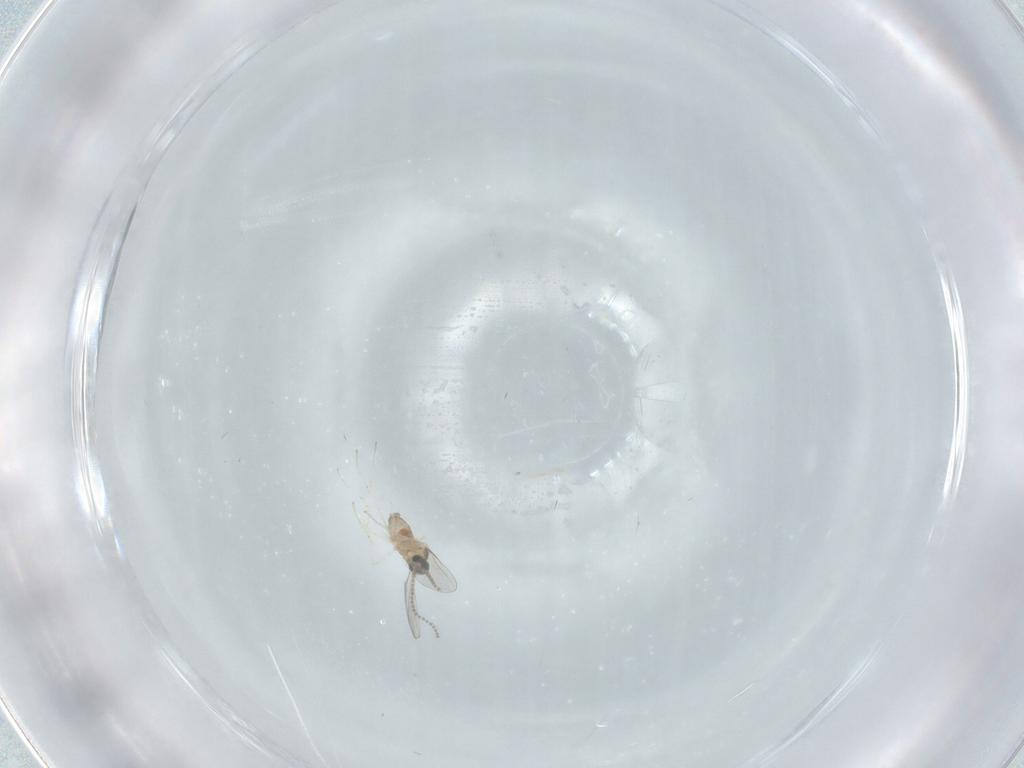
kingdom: Animalia
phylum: Arthropoda
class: Insecta
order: Diptera
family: Cecidomyiidae
